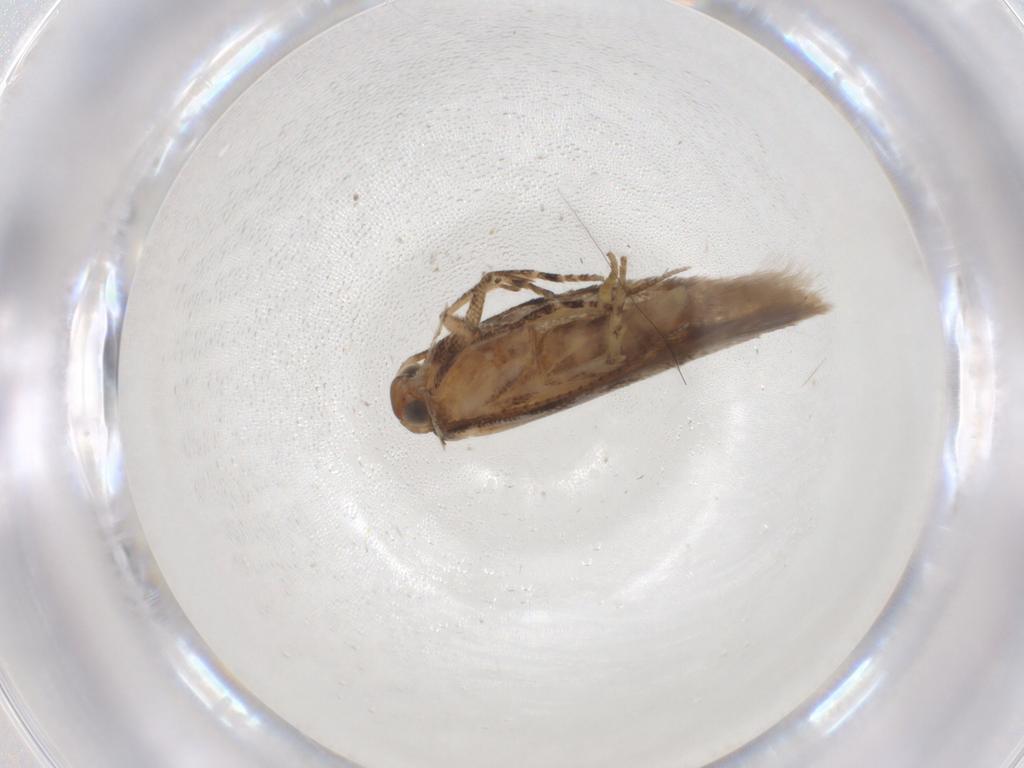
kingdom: Animalia
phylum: Arthropoda
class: Insecta
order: Lepidoptera
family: Gelechiidae
